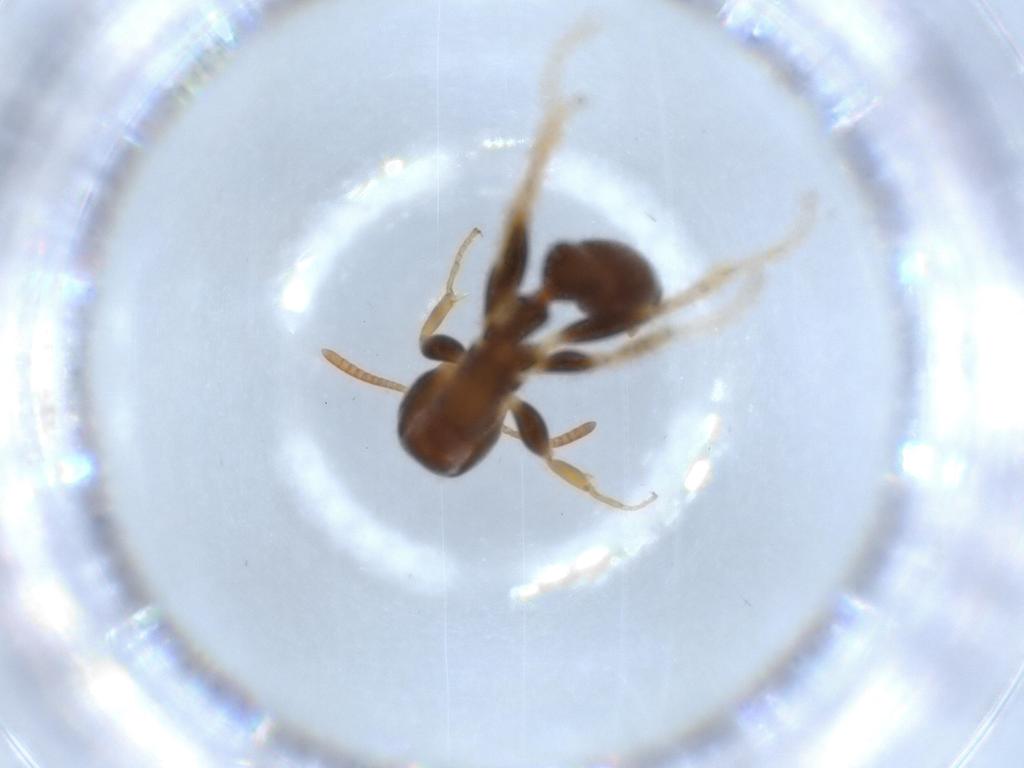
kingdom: Animalia
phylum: Arthropoda
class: Insecta
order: Hymenoptera
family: Formicidae
